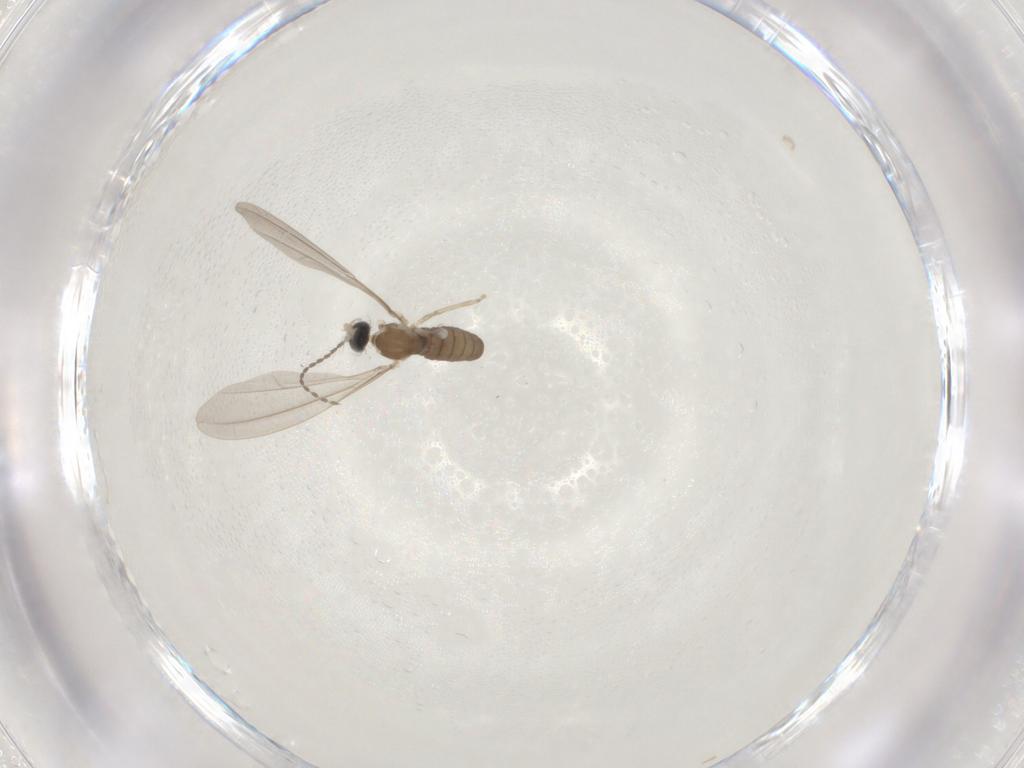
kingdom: Animalia
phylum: Arthropoda
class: Insecta
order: Diptera
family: Cecidomyiidae
